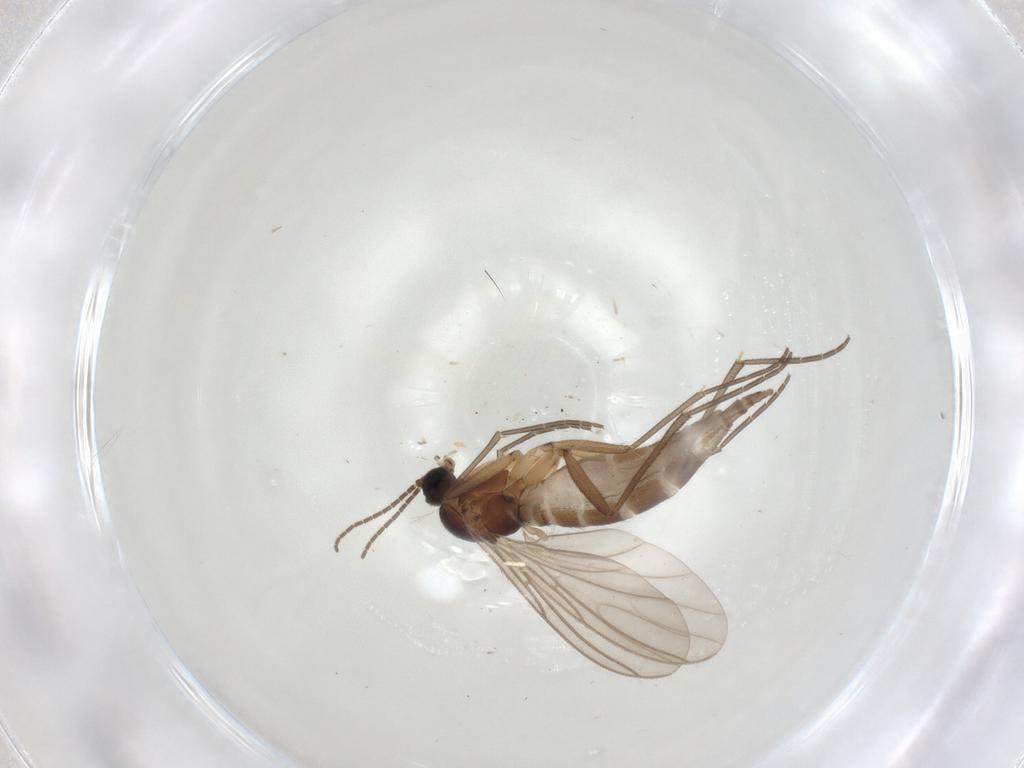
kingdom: Animalia
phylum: Arthropoda
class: Insecta
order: Diptera
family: Sciaridae
